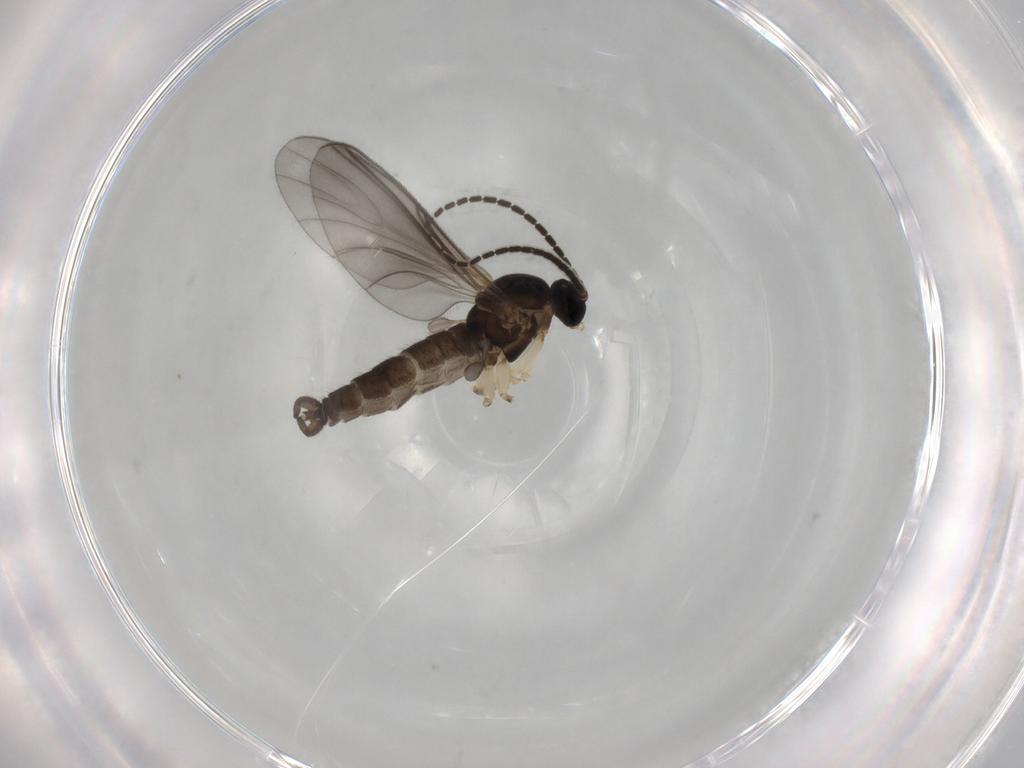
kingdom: Animalia
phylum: Arthropoda
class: Insecta
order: Diptera
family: Sciaridae
